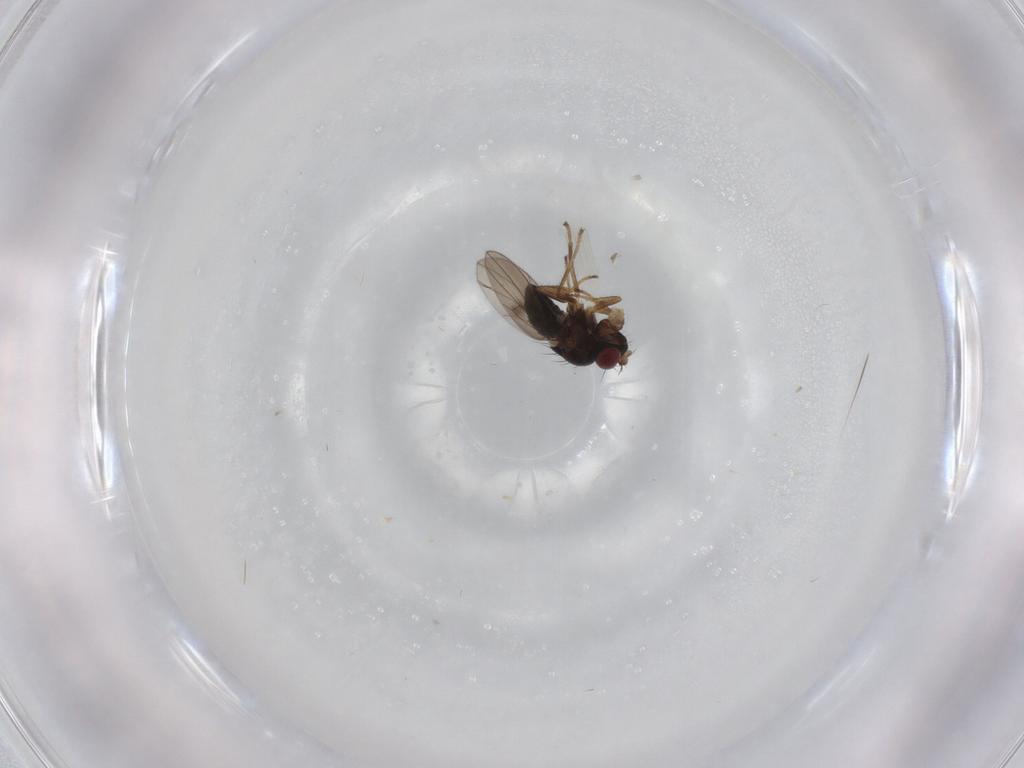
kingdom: Animalia
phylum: Arthropoda
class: Insecta
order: Diptera
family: Ephydridae
